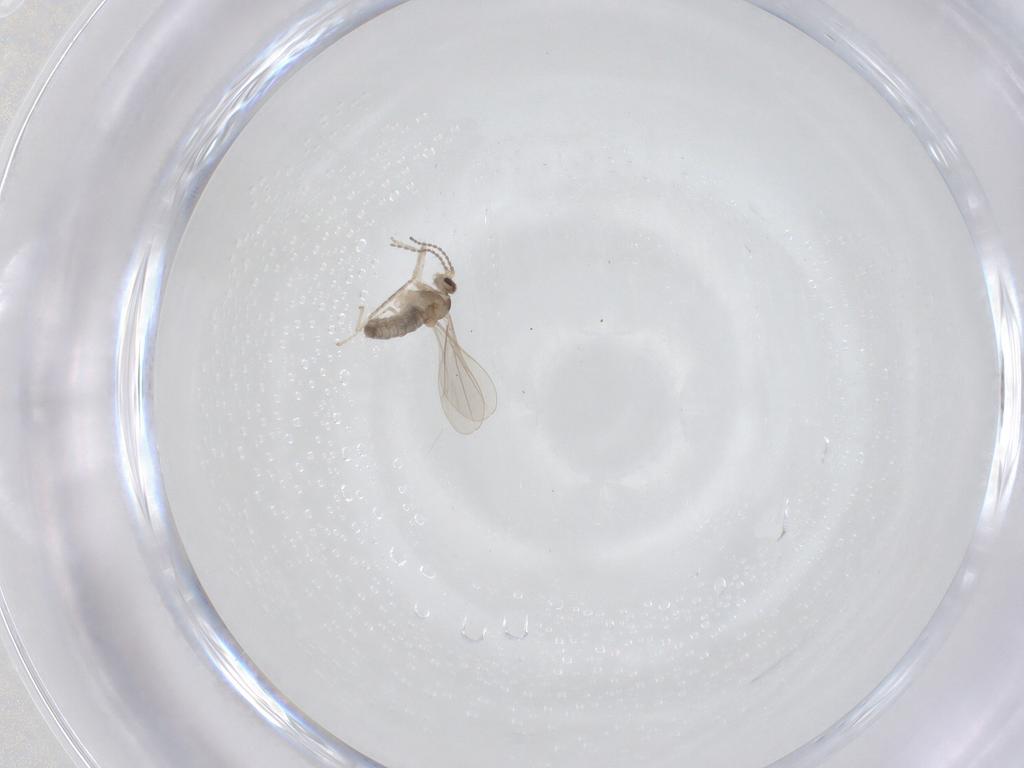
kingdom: Animalia
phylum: Arthropoda
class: Insecta
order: Diptera
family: Cecidomyiidae
